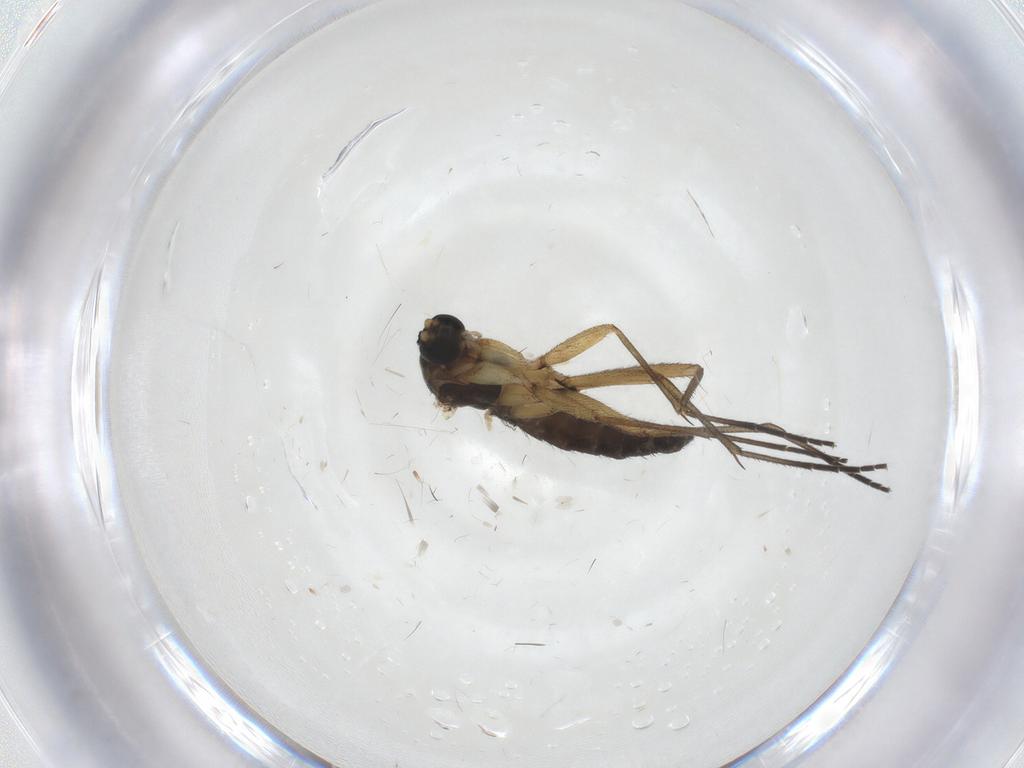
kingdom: Animalia
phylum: Arthropoda
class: Insecta
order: Diptera
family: Sciaridae
